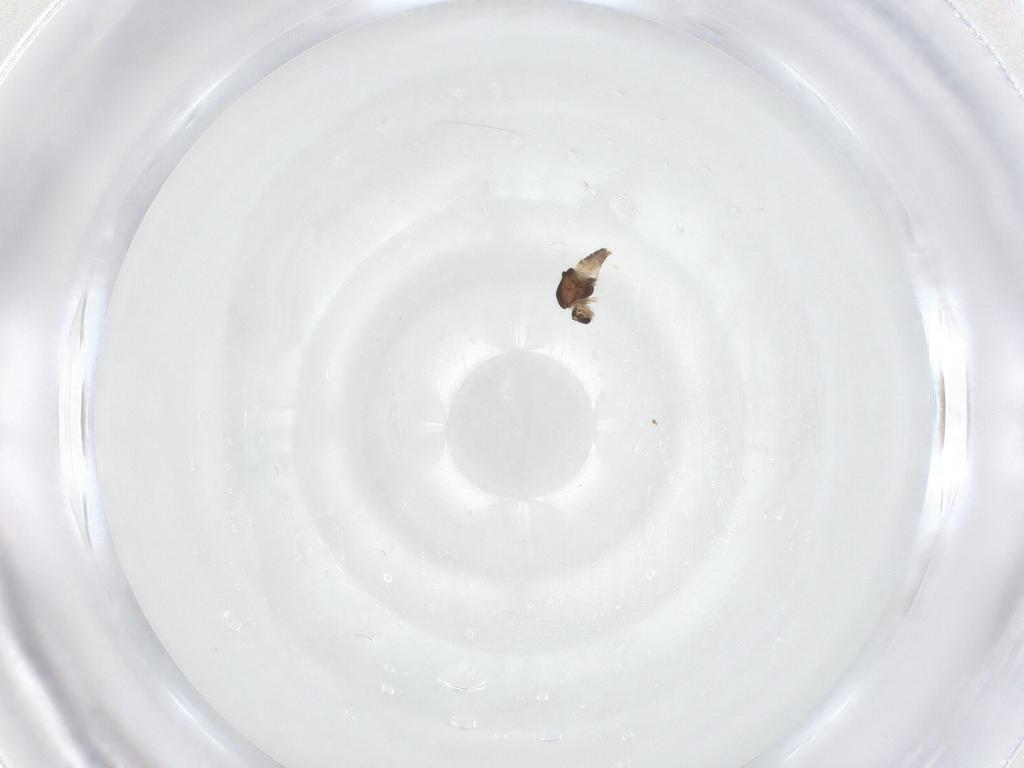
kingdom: Animalia
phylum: Arthropoda
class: Insecta
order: Diptera
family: Chironomidae
